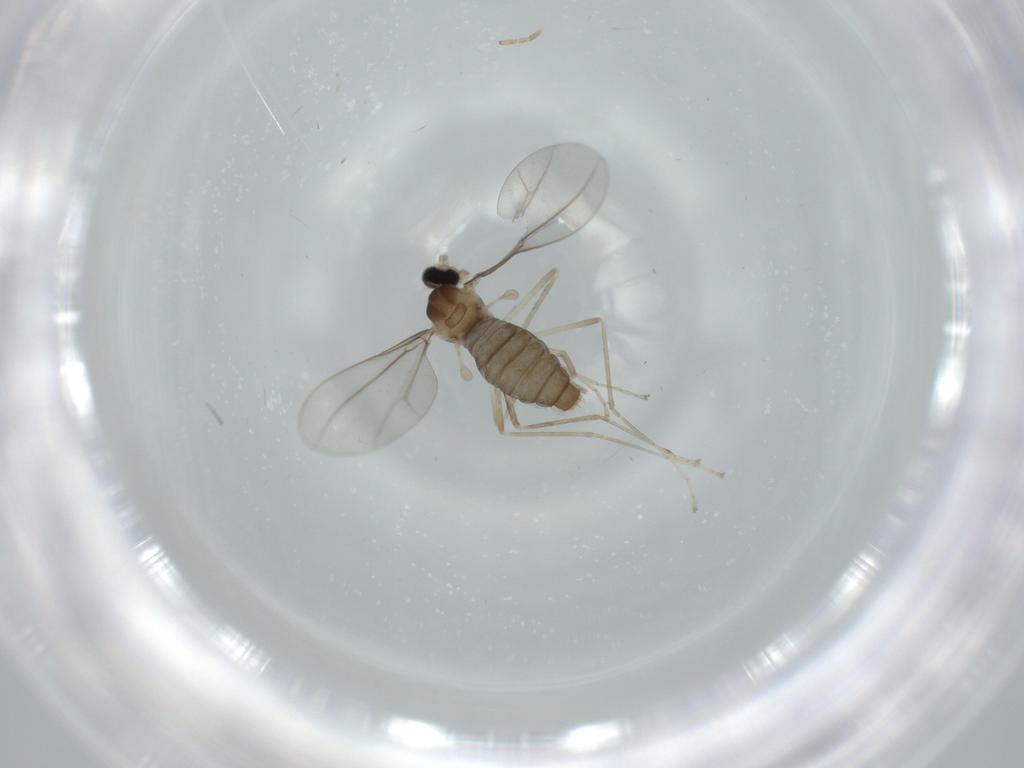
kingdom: Animalia
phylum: Arthropoda
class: Insecta
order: Diptera
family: Cecidomyiidae
